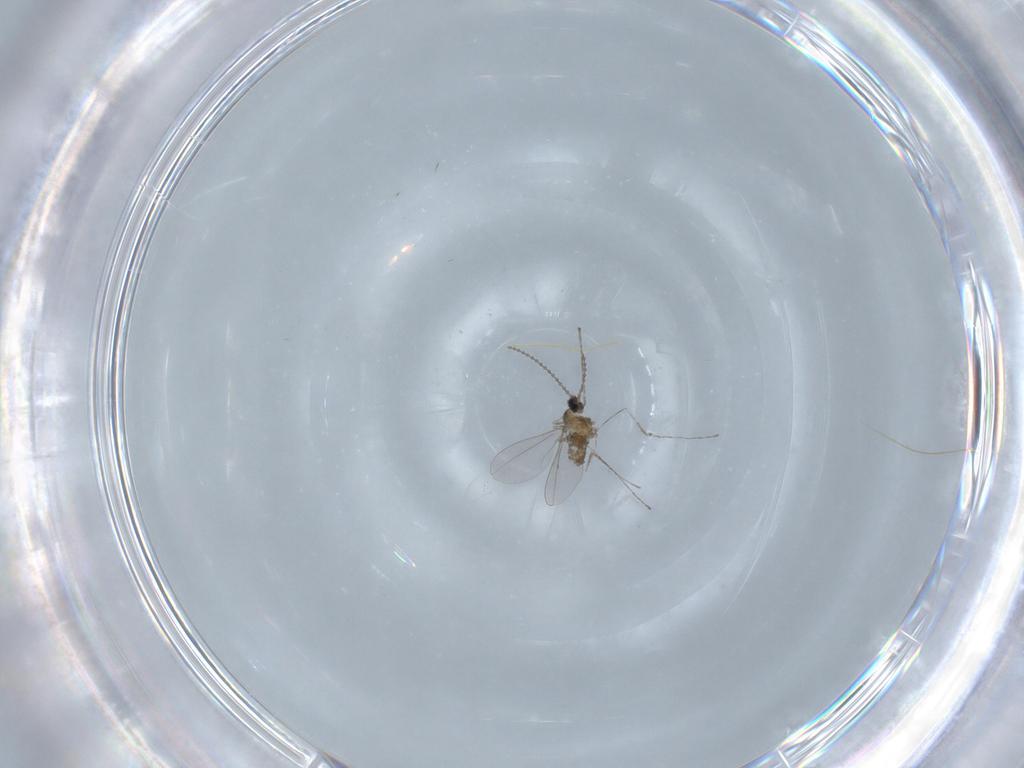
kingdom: Animalia
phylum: Arthropoda
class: Insecta
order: Diptera
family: Cecidomyiidae
